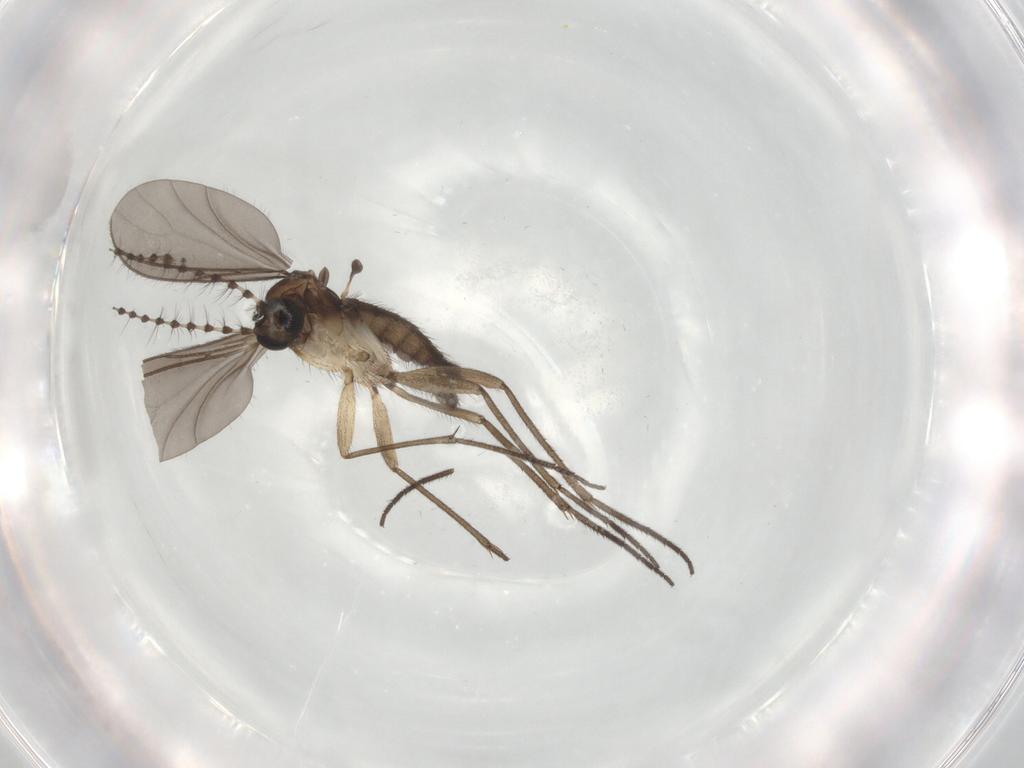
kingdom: Animalia
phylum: Arthropoda
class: Insecta
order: Diptera
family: Sciaridae
